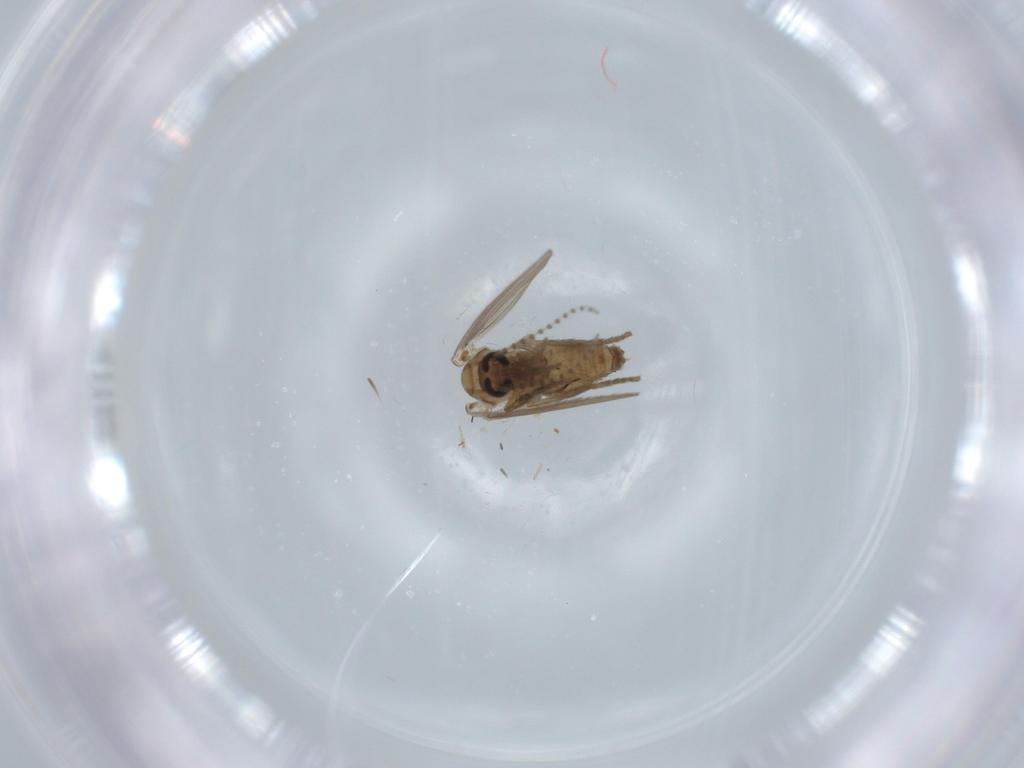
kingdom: Animalia
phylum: Arthropoda
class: Insecta
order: Diptera
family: Psychodidae
